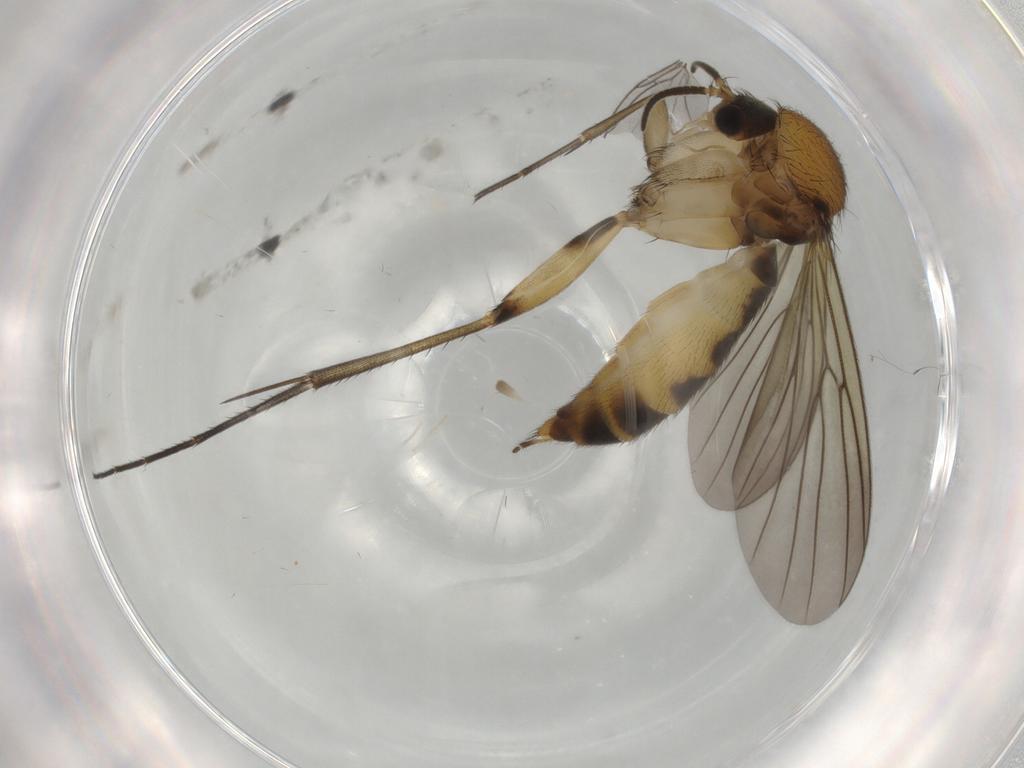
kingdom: Animalia
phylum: Arthropoda
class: Insecta
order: Diptera
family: Mycetophilidae
